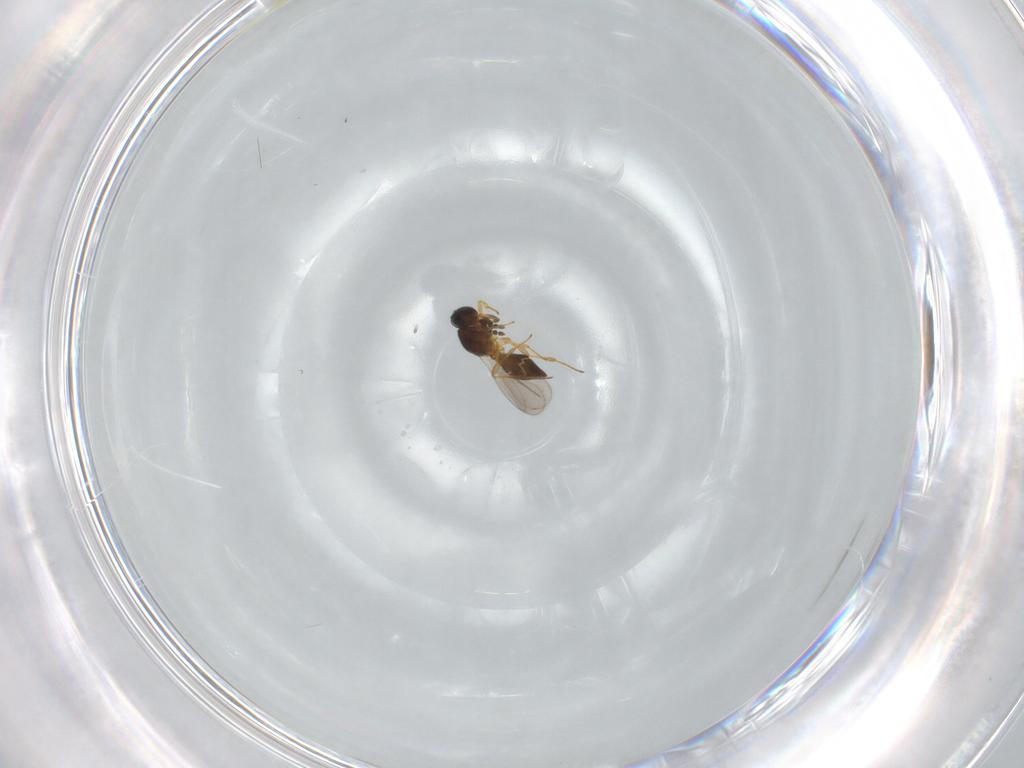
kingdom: Animalia
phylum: Arthropoda
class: Insecta
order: Hymenoptera
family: Platygastridae
